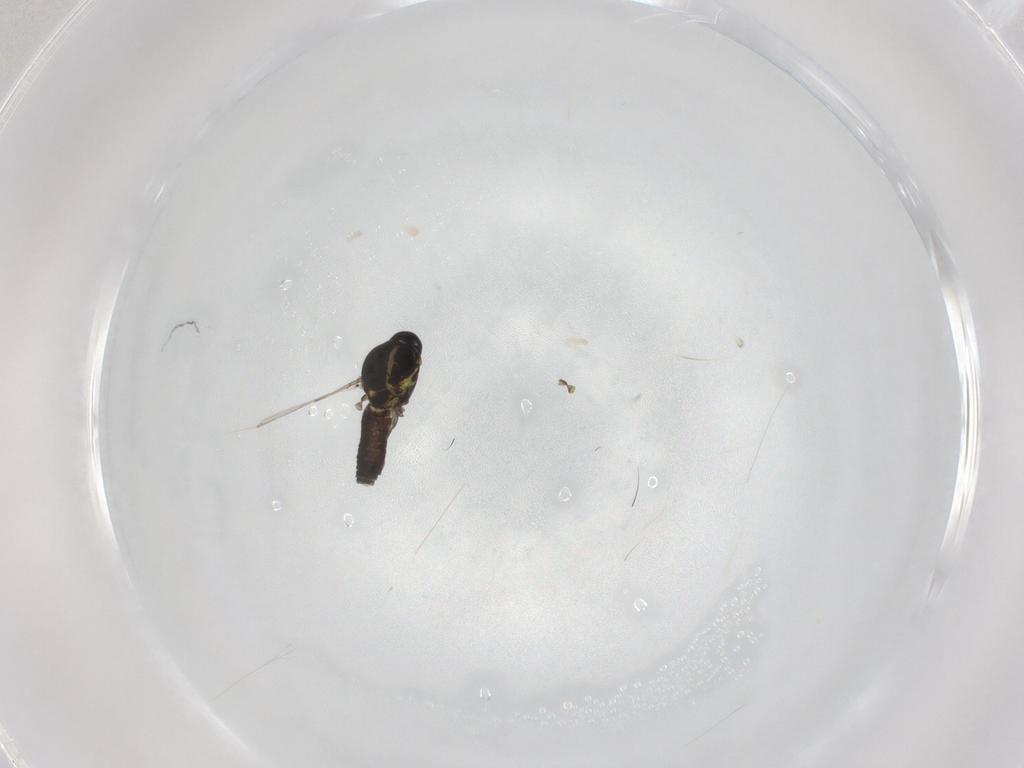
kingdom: Animalia
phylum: Arthropoda
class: Insecta
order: Diptera
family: Ceratopogonidae
